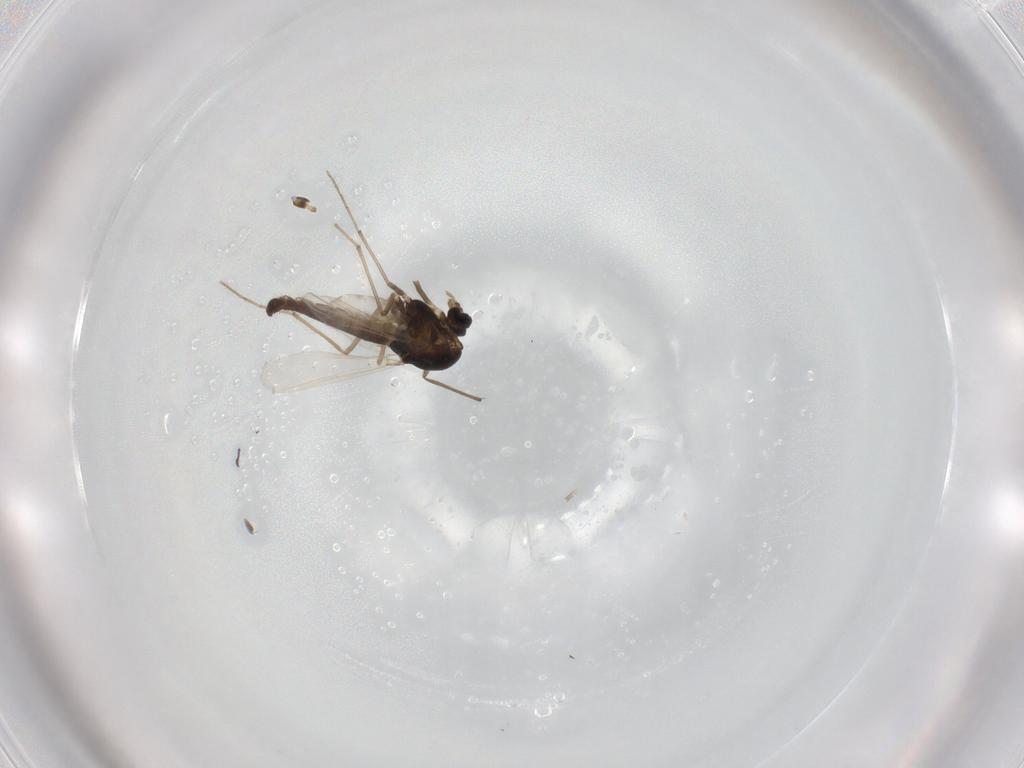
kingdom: Animalia
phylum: Arthropoda
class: Insecta
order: Diptera
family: Chironomidae
